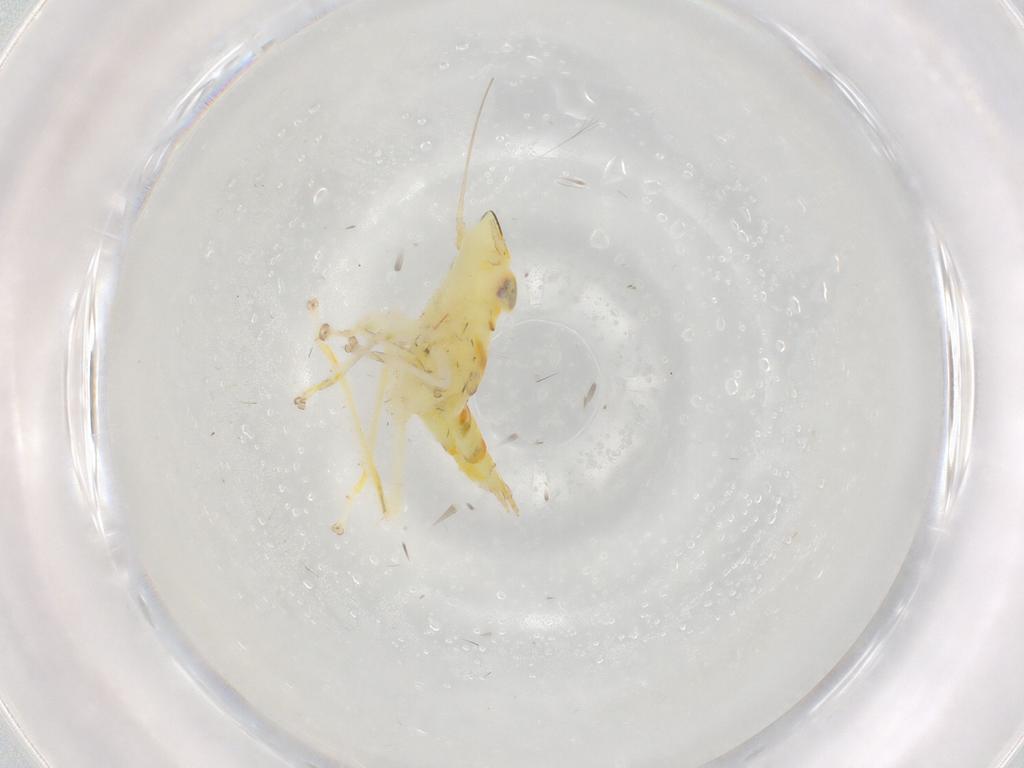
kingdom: Animalia
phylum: Arthropoda
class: Insecta
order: Hemiptera
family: Cicadellidae
